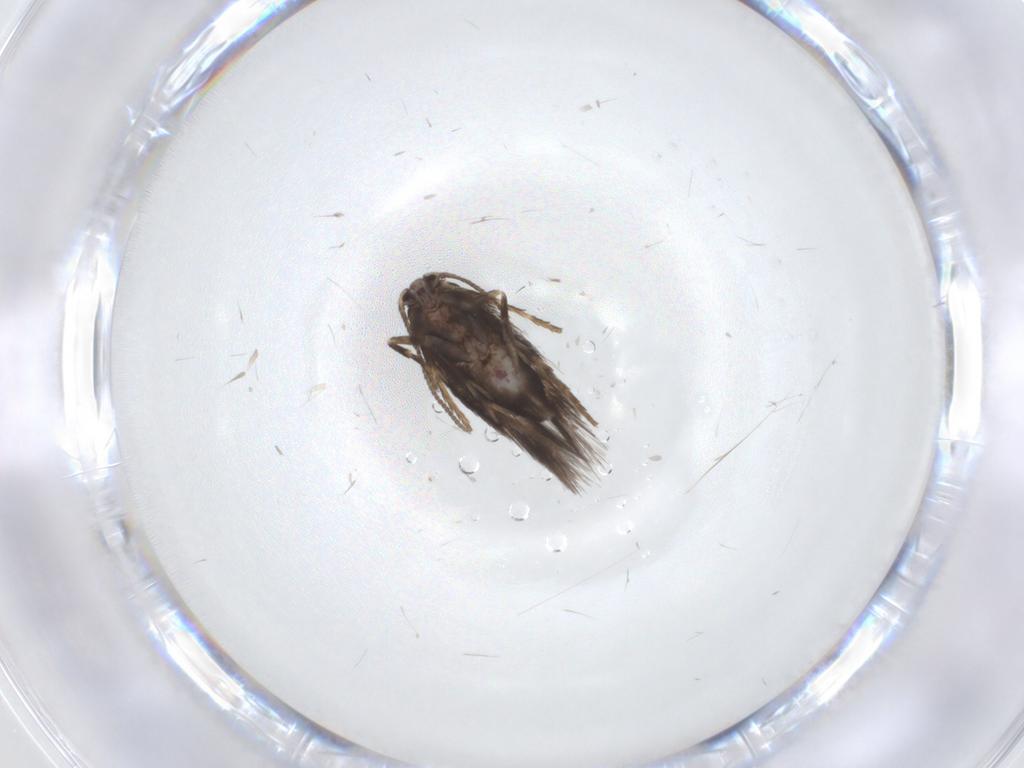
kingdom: Animalia
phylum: Arthropoda
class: Insecta
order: Lepidoptera
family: Nepticulidae
